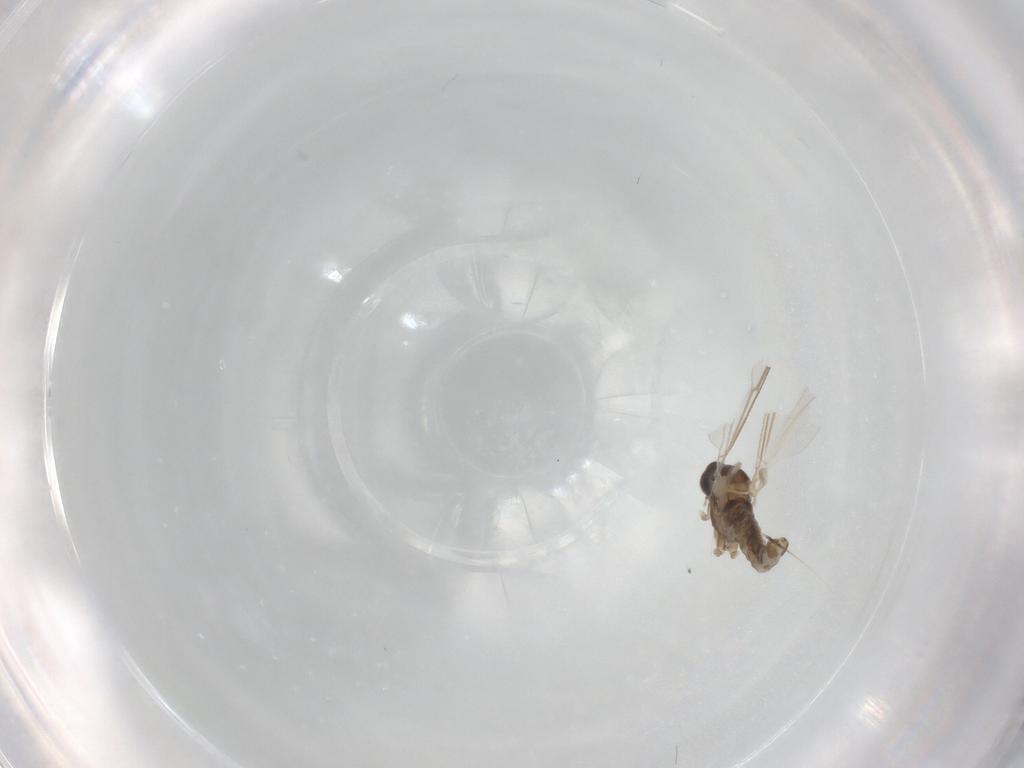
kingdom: Animalia
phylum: Arthropoda
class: Insecta
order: Diptera
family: Cecidomyiidae
